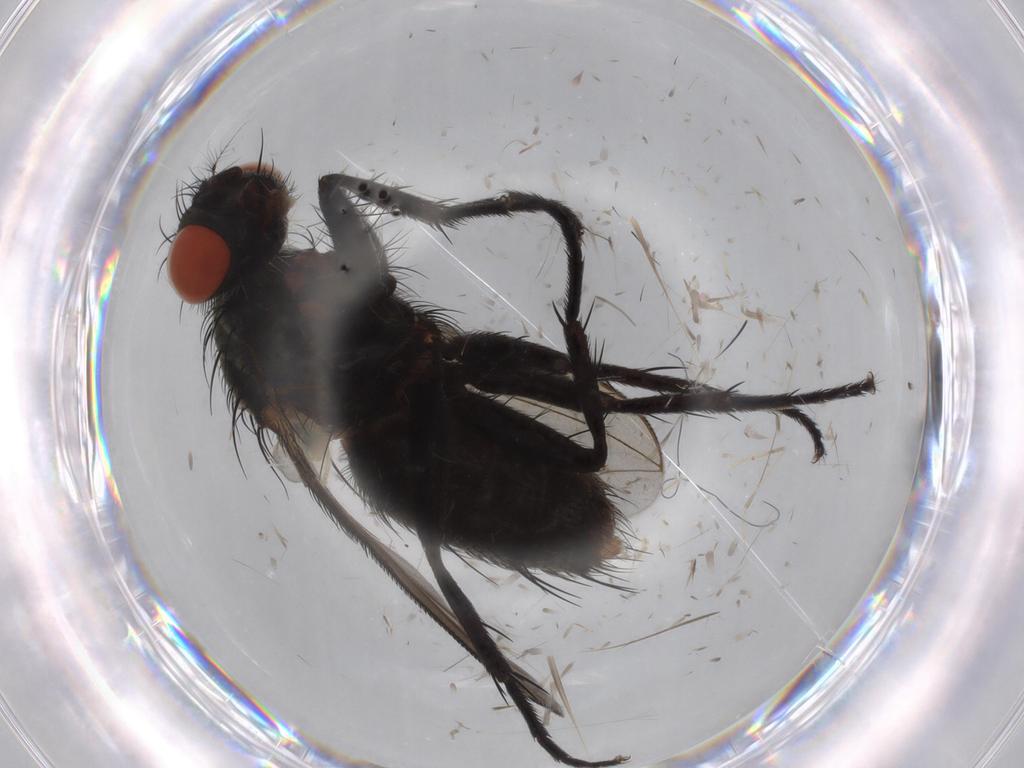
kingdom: Animalia
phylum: Arthropoda
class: Insecta
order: Diptera
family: Sarcophagidae
